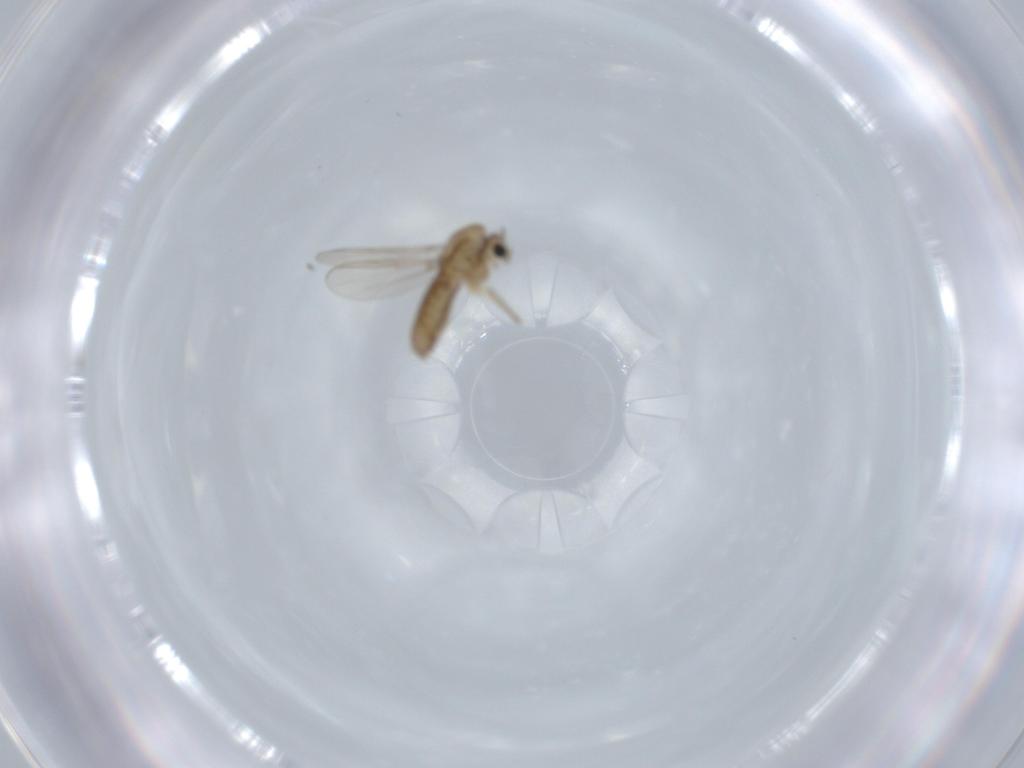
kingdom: Animalia
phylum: Arthropoda
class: Insecta
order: Diptera
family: Chironomidae
